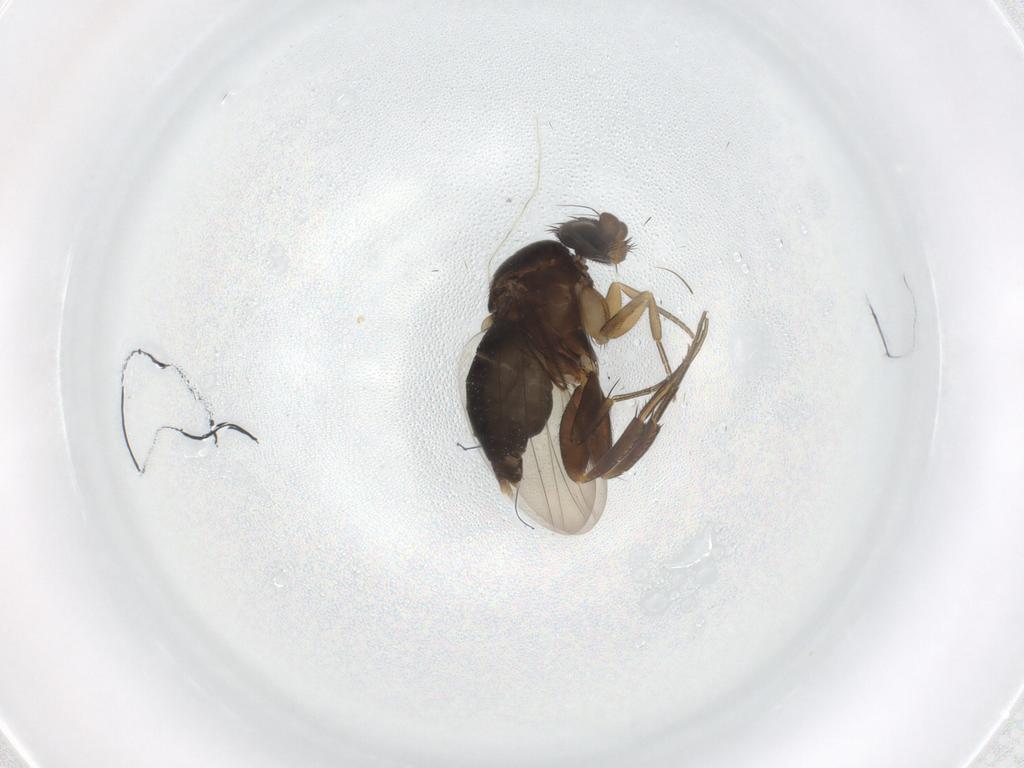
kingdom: Animalia
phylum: Arthropoda
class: Insecta
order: Diptera
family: Phoridae
